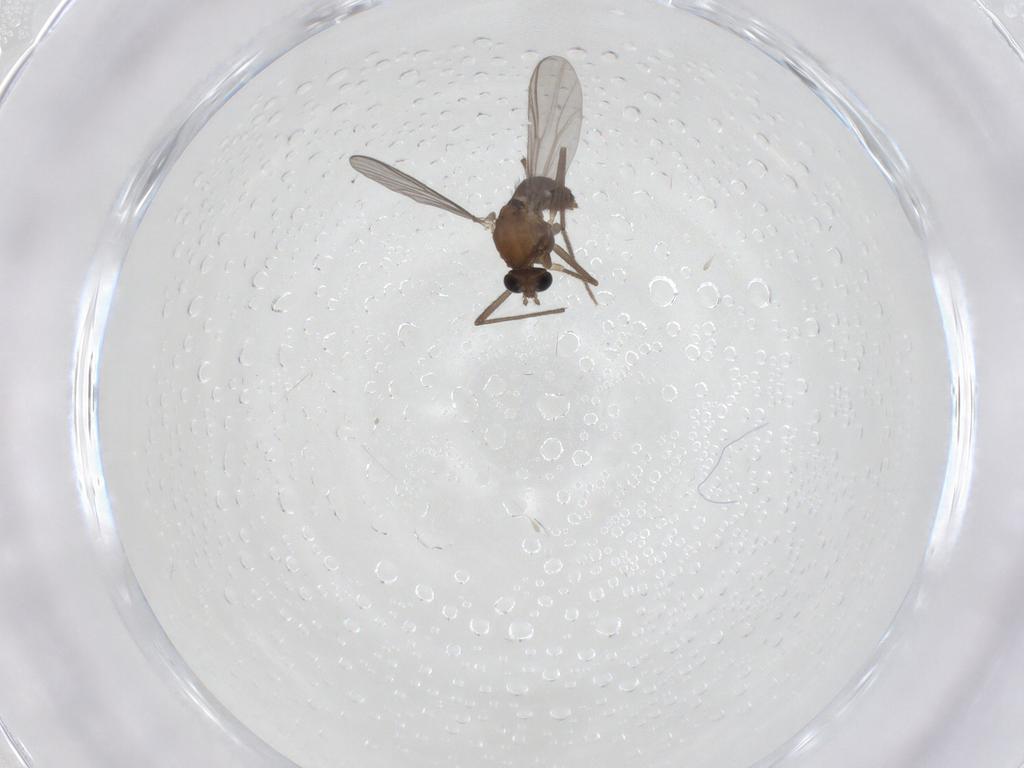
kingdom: Animalia
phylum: Arthropoda
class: Insecta
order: Diptera
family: Chironomidae
